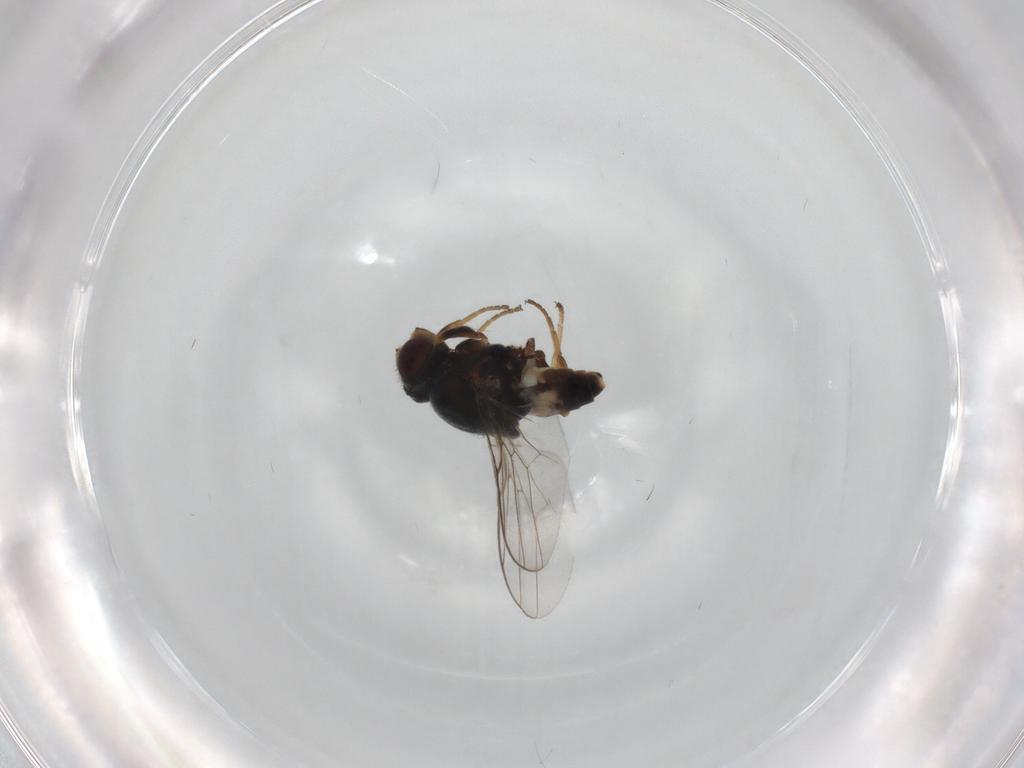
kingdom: Animalia
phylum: Arthropoda
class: Insecta
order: Diptera
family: Chloropidae
